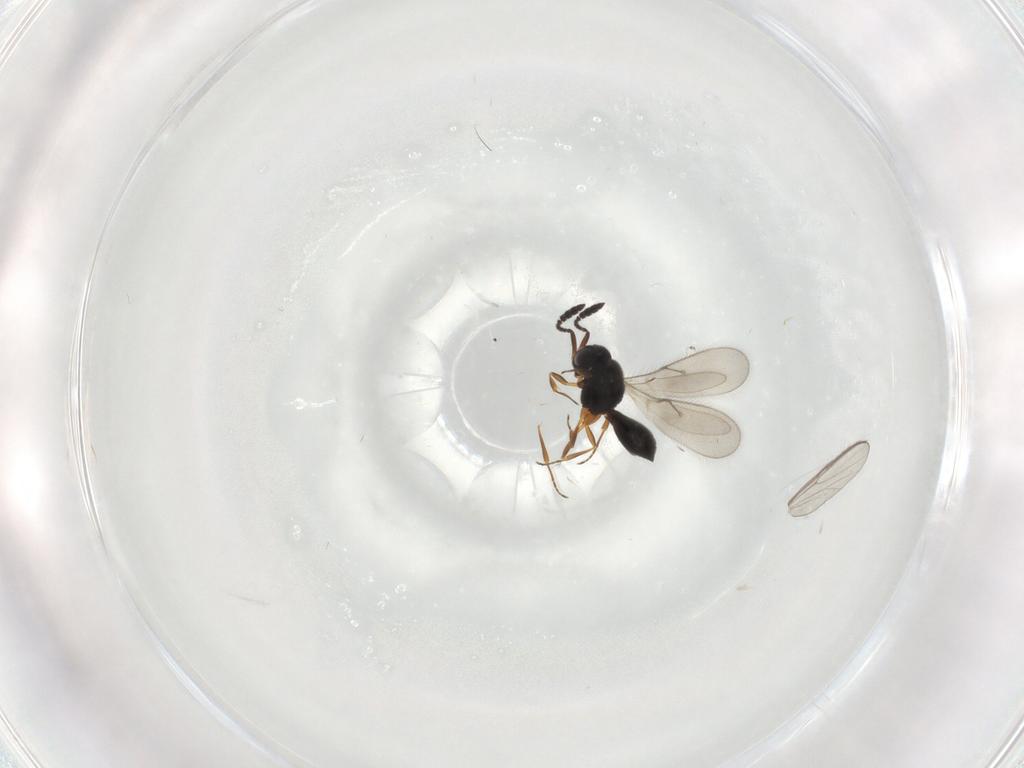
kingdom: Animalia
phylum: Arthropoda
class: Insecta
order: Hymenoptera
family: Scelionidae
